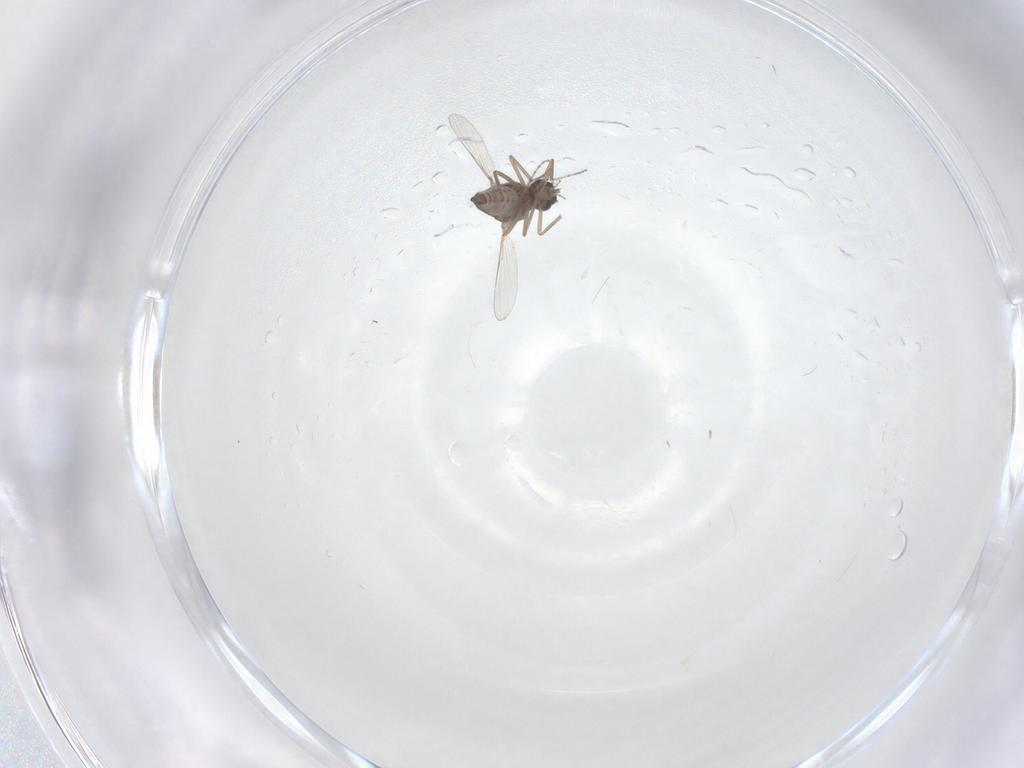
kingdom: Animalia
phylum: Arthropoda
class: Insecta
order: Diptera
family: Ceratopogonidae
